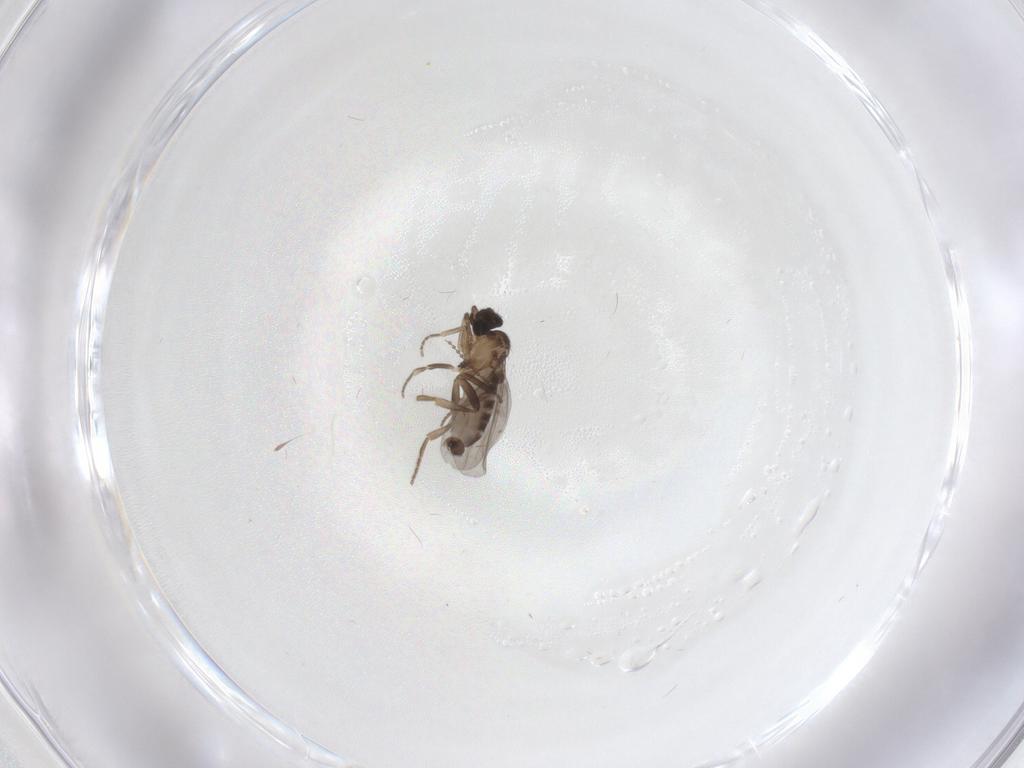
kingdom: Animalia
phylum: Arthropoda
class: Insecta
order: Diptera
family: Cecidomyiidae
